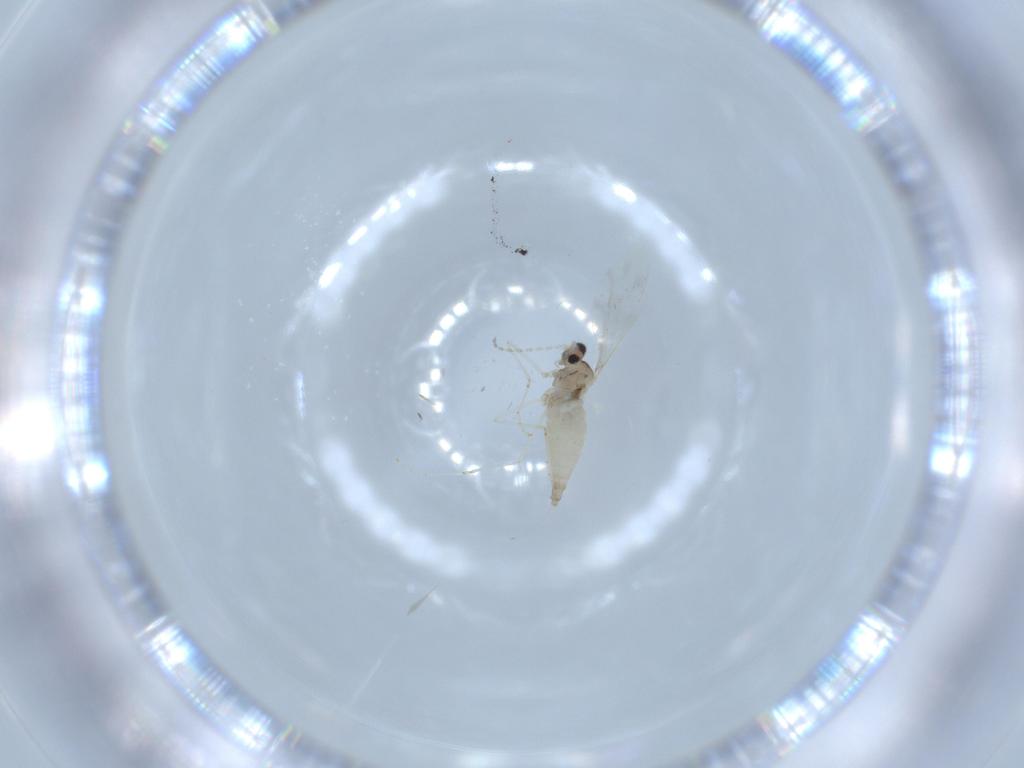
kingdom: Animalia
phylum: Arthropoda
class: Insecta
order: Diptera
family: Cecidomyiidae
